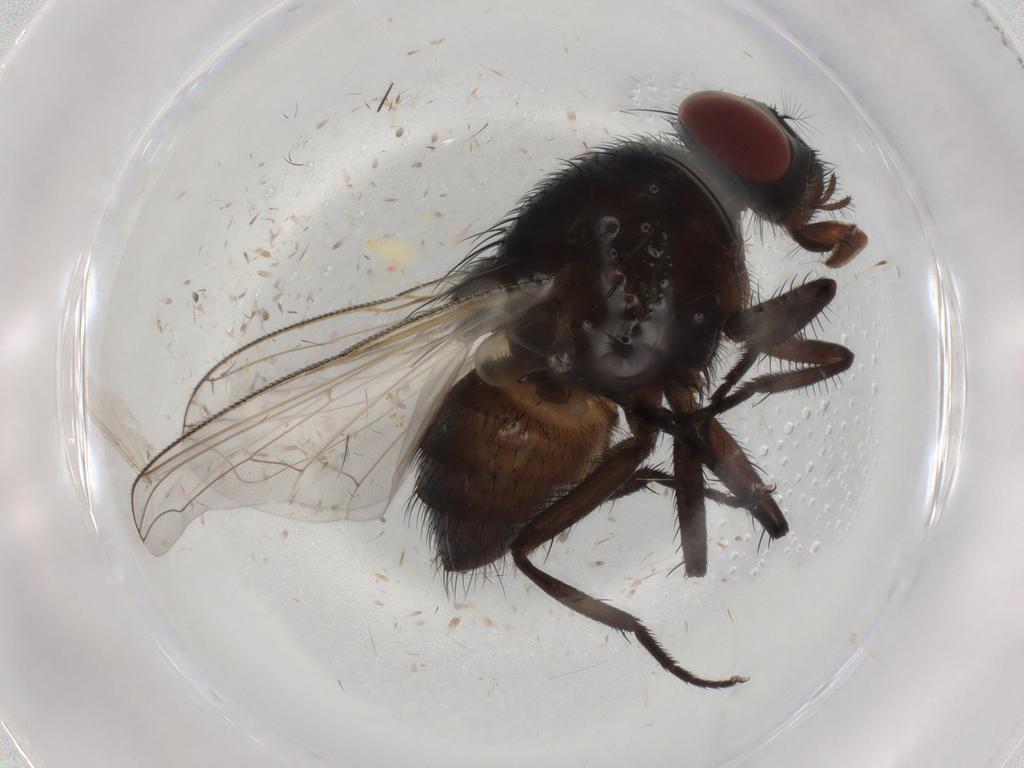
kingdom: Animalia
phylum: Arthropoda
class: Insecta
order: Diptera
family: Muscidae
